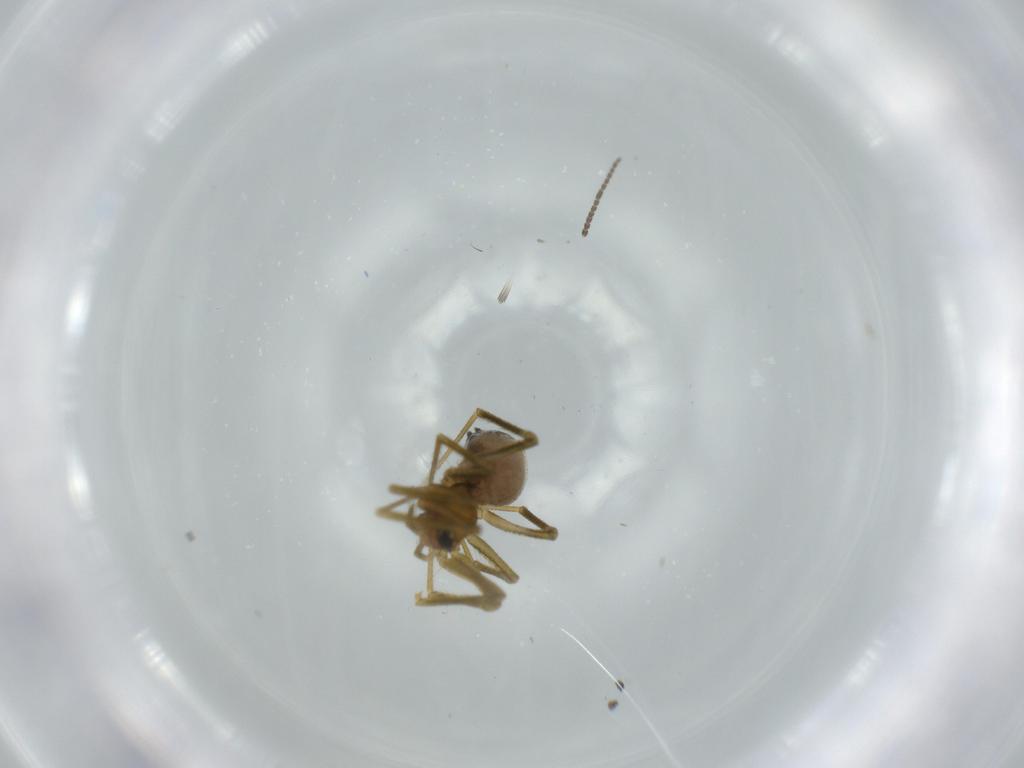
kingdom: Animalia
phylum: Arthropoda
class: Arachnida
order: Araneae
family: Linyphiidae
